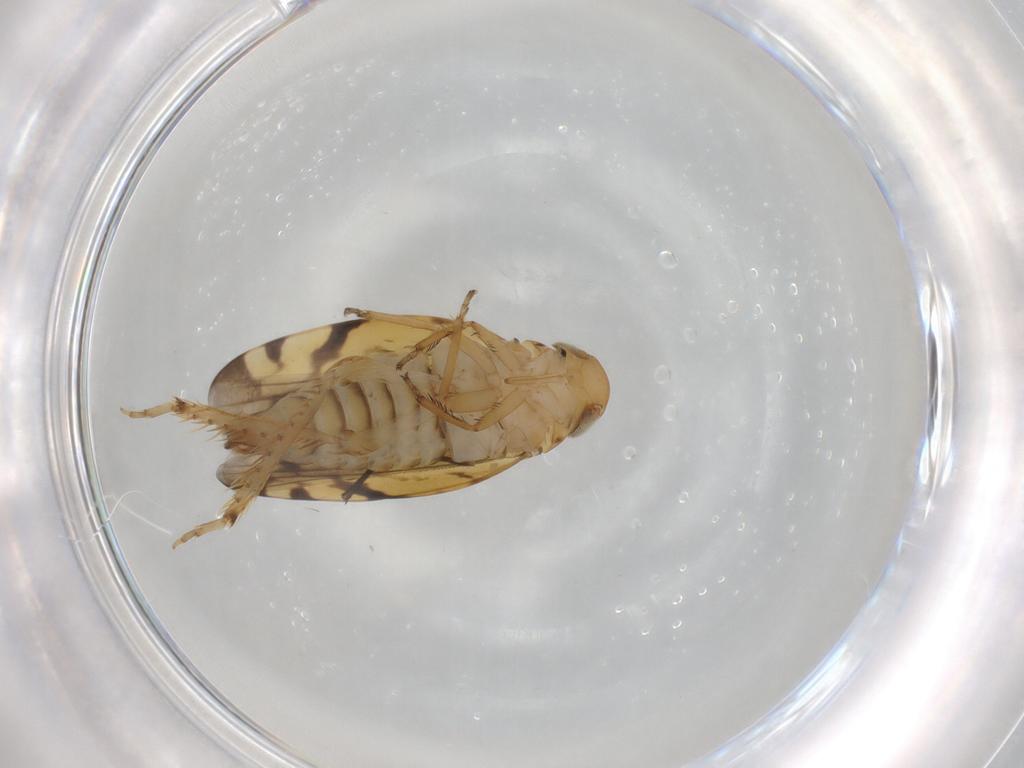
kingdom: Animalia
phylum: Arthropoda
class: Insecta
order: Hemiptera
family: Cicadellidae
